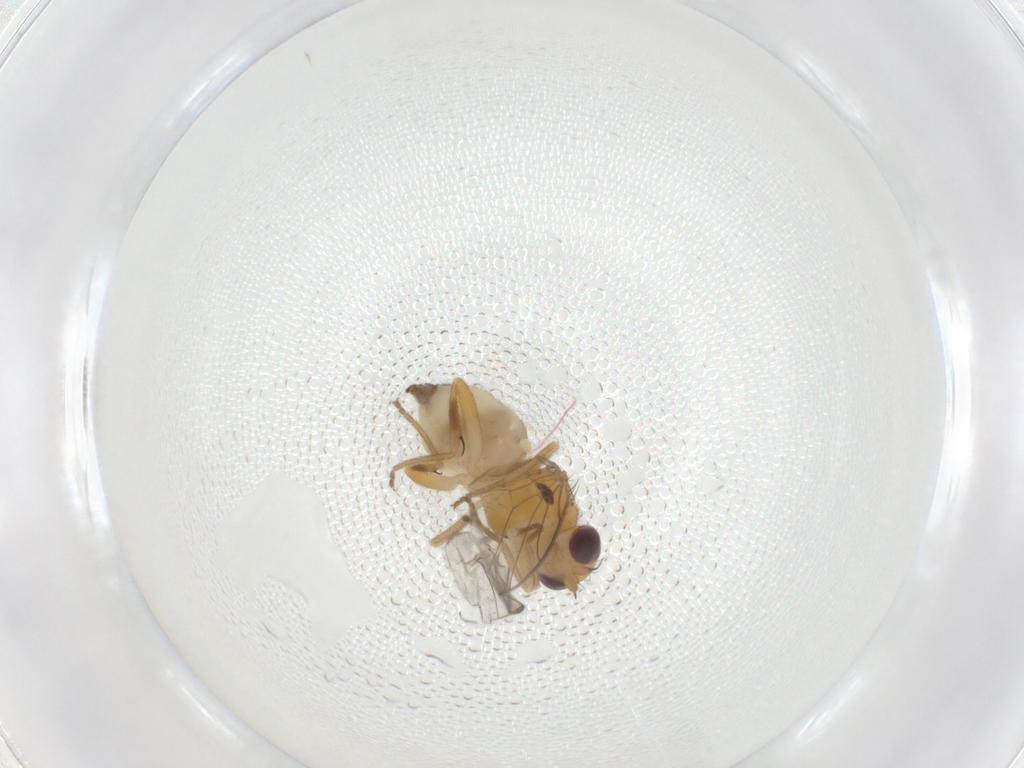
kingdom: Animalia
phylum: Arthropoda
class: Insecta
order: Diptera
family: Chloropidae
